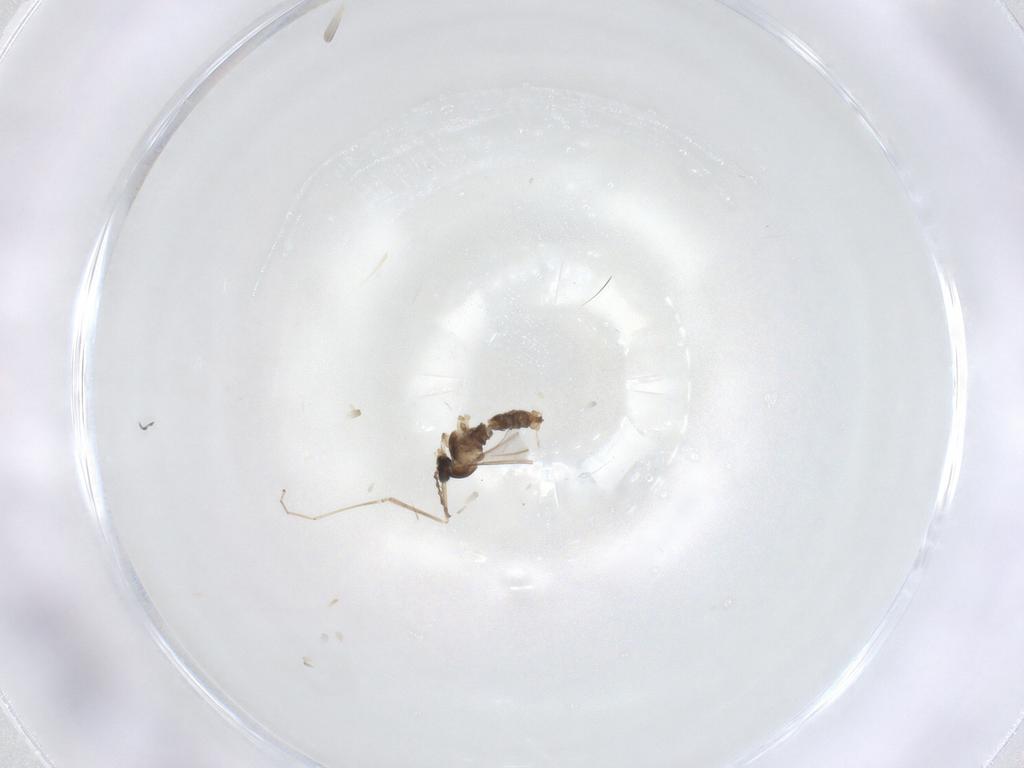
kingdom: Animalia
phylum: Arthropoda
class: Insecta
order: Diptera
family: Cecidomyiidae
